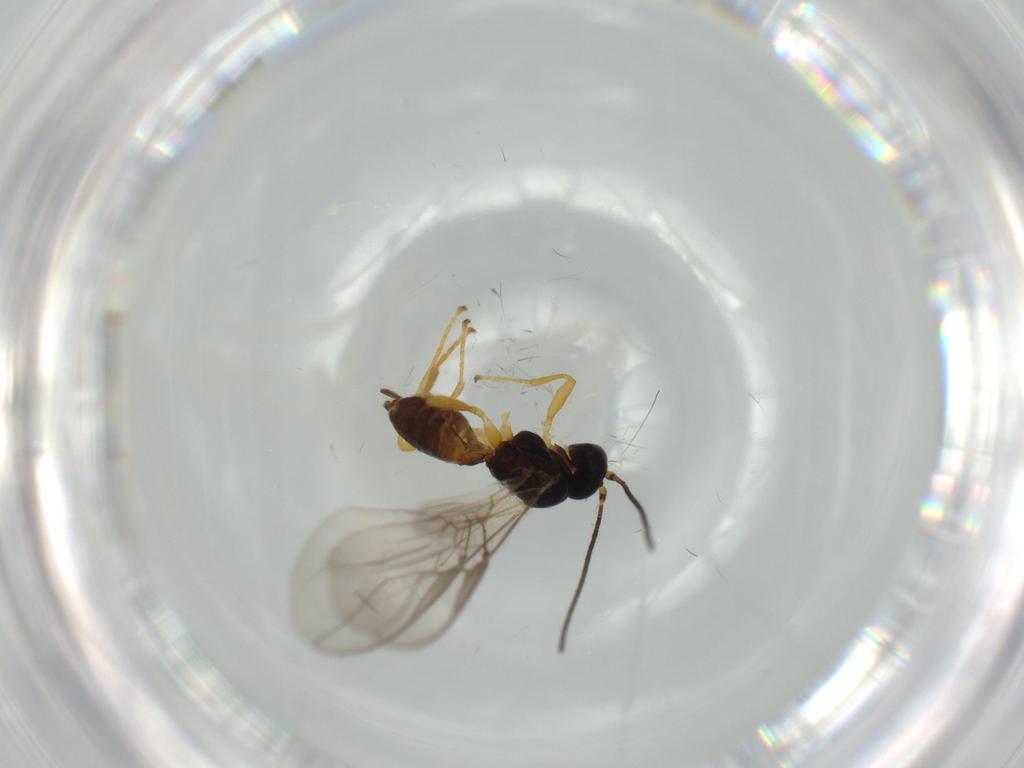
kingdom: Animalia
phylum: Arthropoda
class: Insecta
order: Hymenoptera
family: Braconidae
